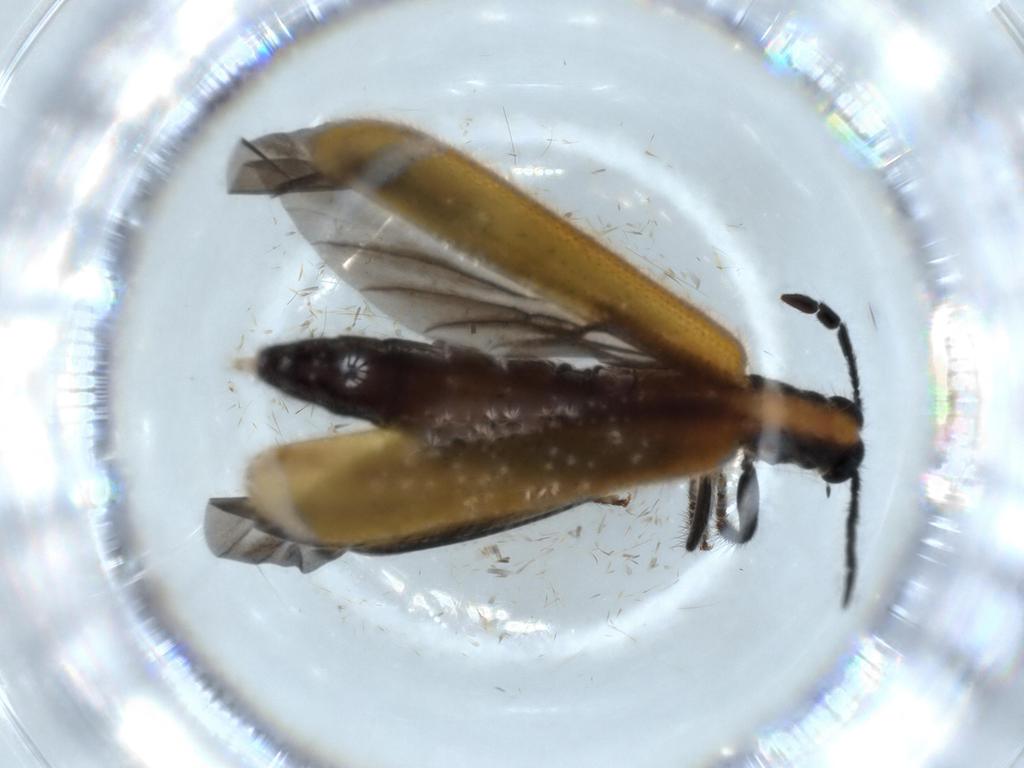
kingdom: Animalia
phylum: Arthropoda
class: Insecta
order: Coleoptera
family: Cleridae
